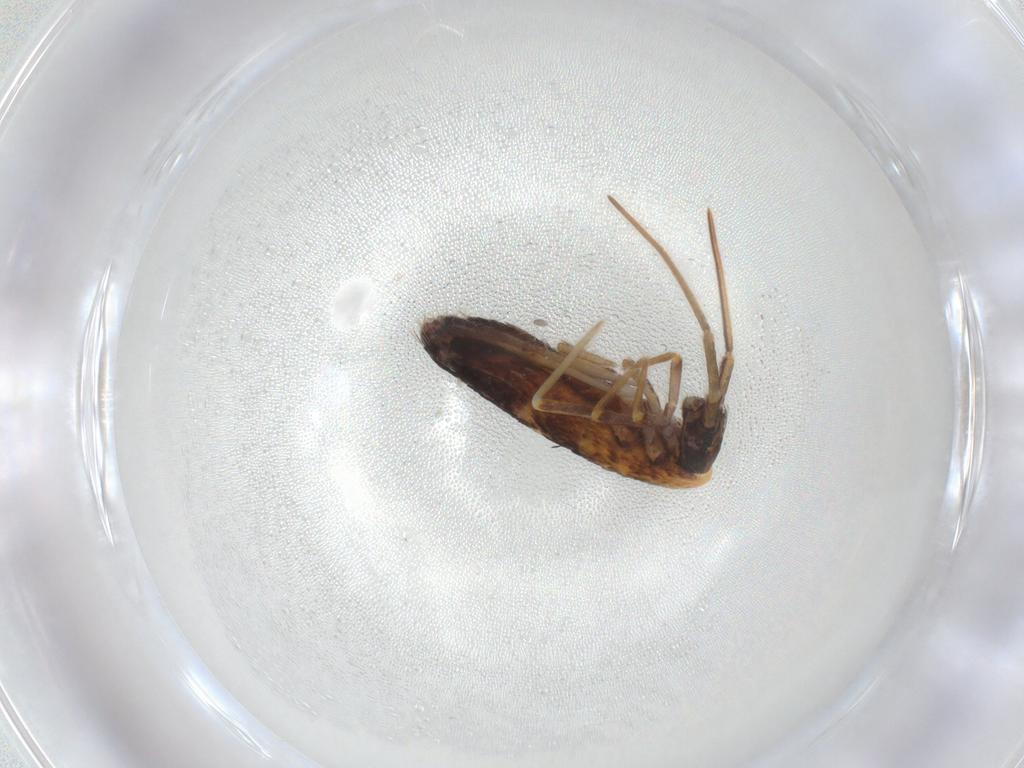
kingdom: Animalia
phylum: Arthropoda
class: Collembola
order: Entomobryomorpha
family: Entomobryidae
